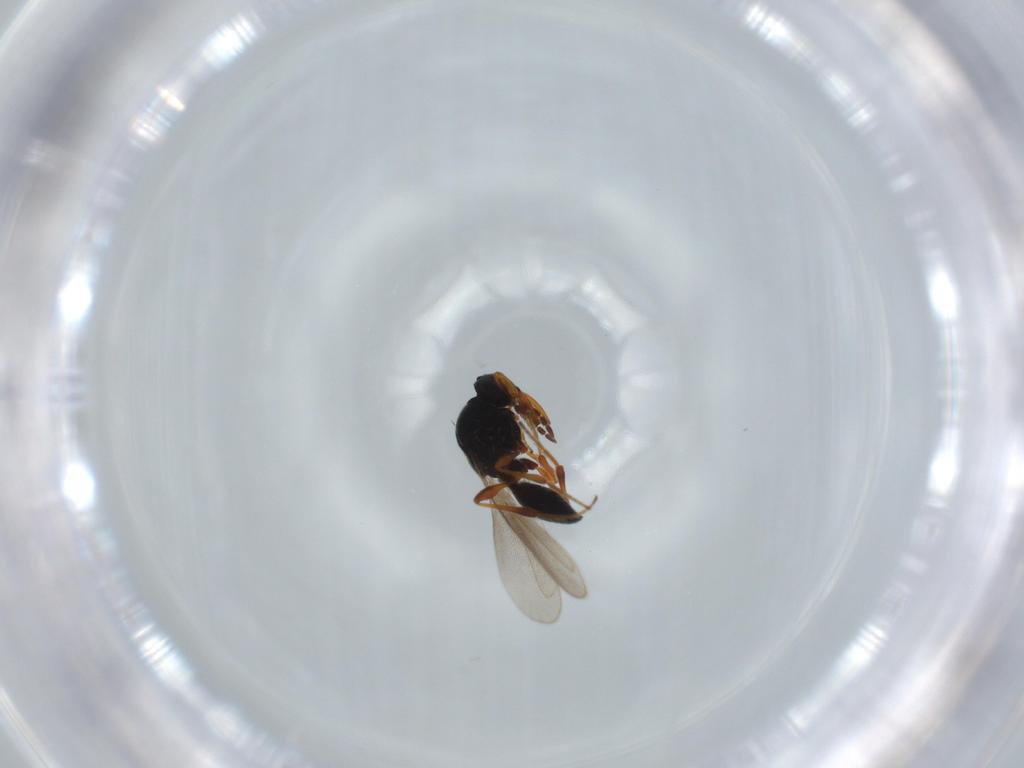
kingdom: Animalia
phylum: Arthropoda
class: Insecta
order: Hymenoptera
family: Platygastridae
